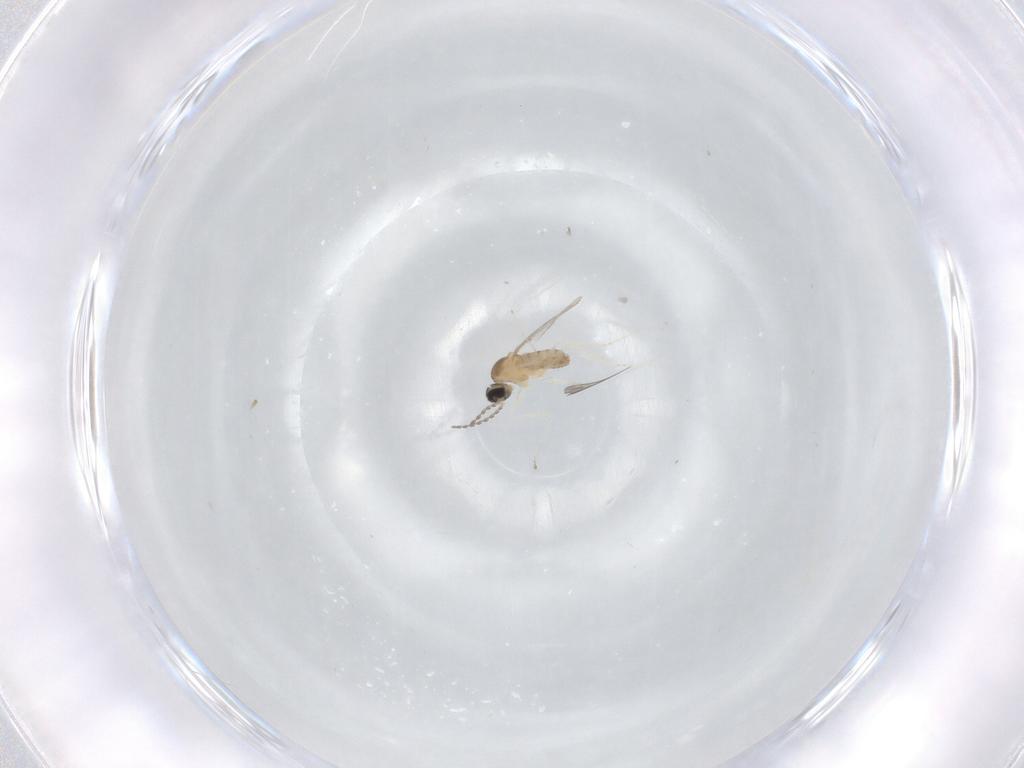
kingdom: Animalia
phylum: Arthropoda
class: Insecta
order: Diptera
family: Cecidomyiidae
